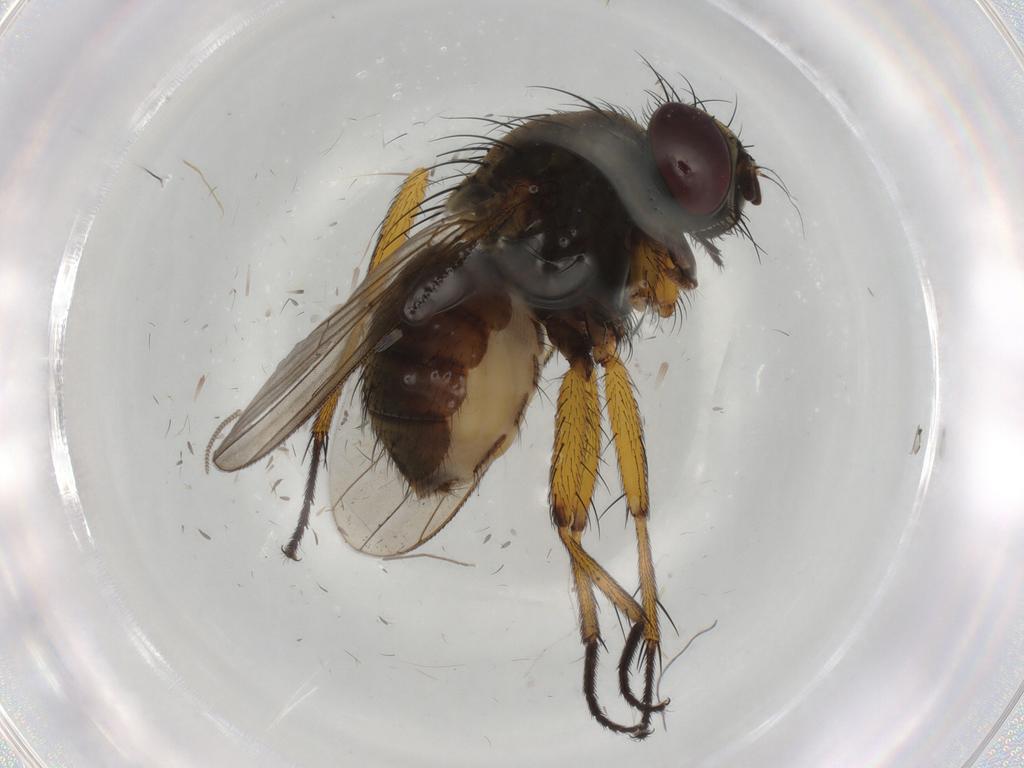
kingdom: Animalia
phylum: Arthropoda
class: Insecta
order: Diptera
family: Muscidae
